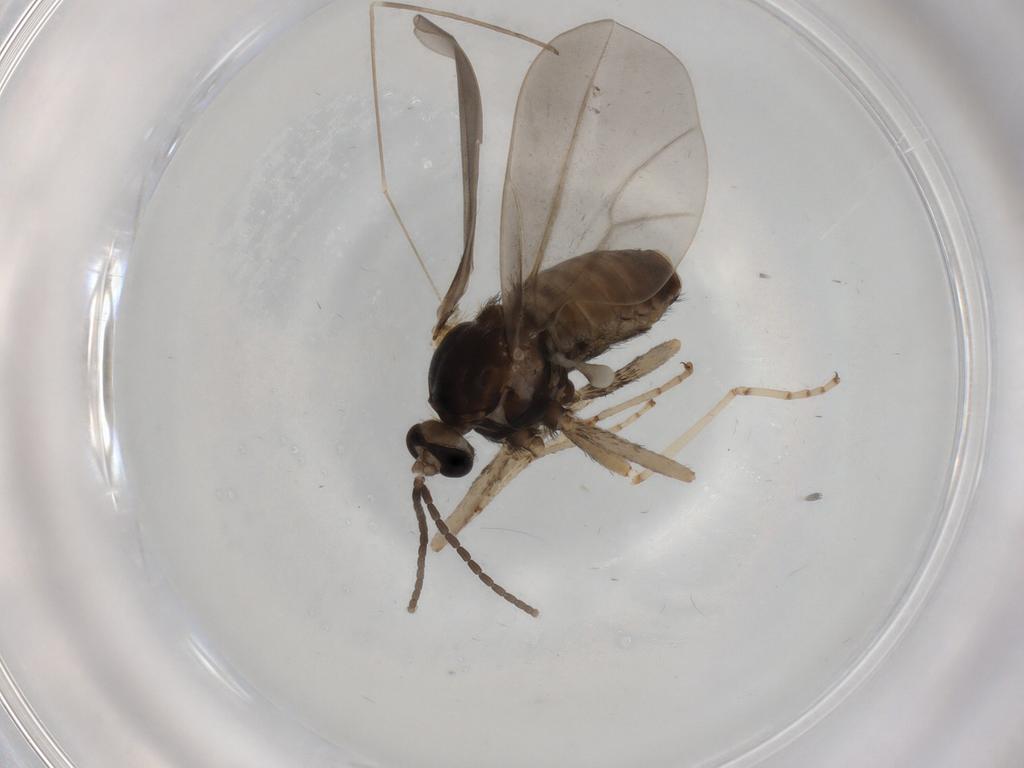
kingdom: Animalia
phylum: Arthropoda
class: Insecta
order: Diptera
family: Cecidomyiidae
